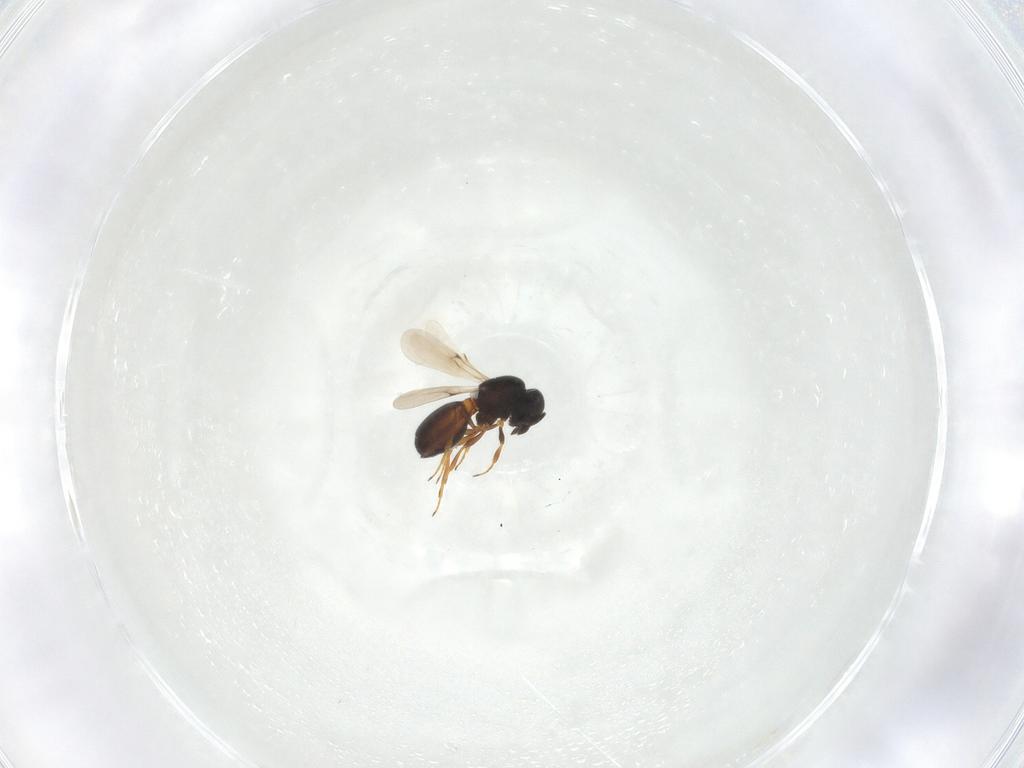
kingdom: Animalia
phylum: Arthropoda
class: Insecta
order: Hymenoptera
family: Scelionidae
